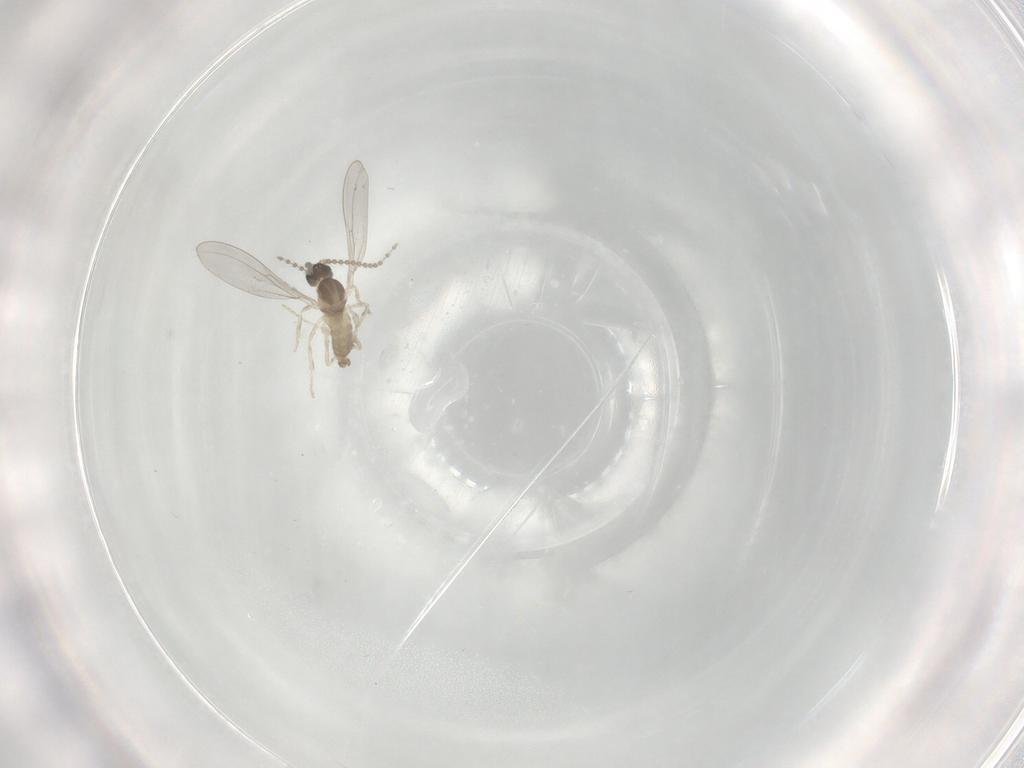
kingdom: Animalia
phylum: Arthropoda
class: Insecta
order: Diptera
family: Cecidomyiidae
